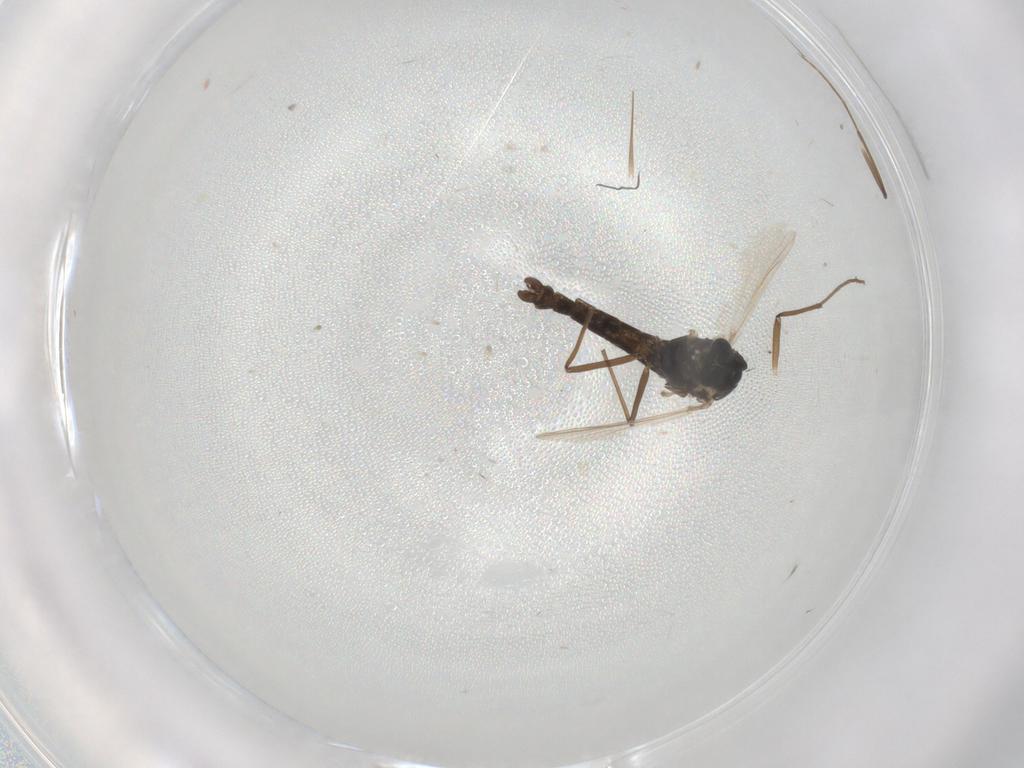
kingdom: Animalia
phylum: Arthropoda
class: Insecta
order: Diptera
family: Chironomidae
